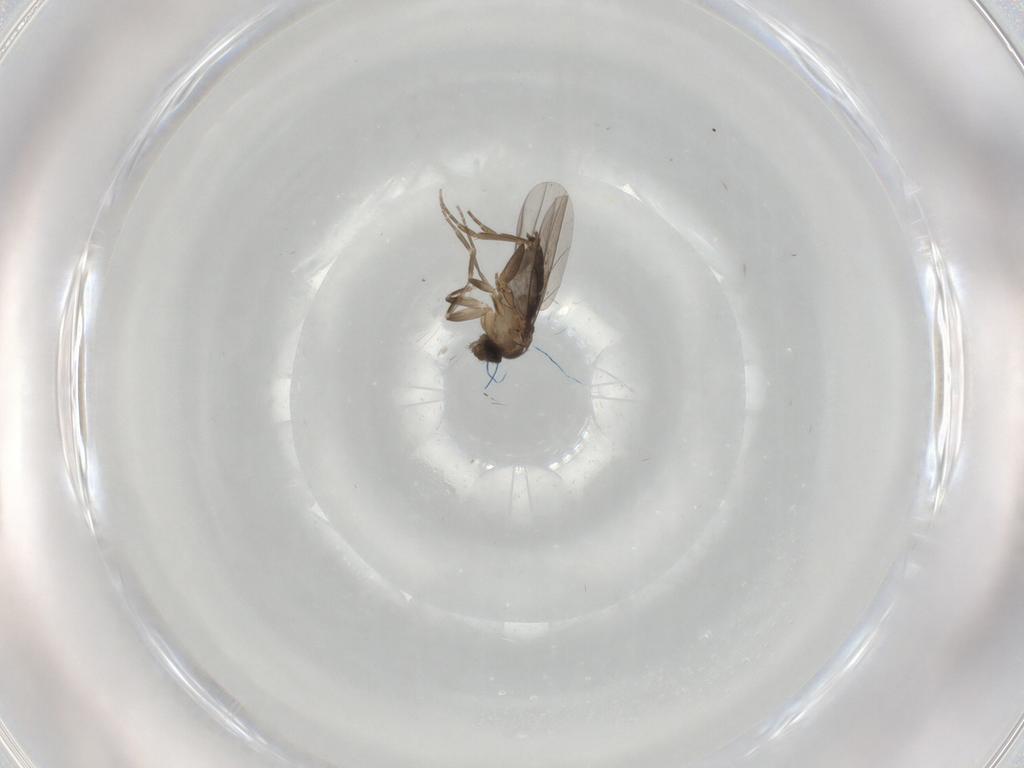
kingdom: Animalia
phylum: Arthropoda
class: Insecta
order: Diptera
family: Phoridae
